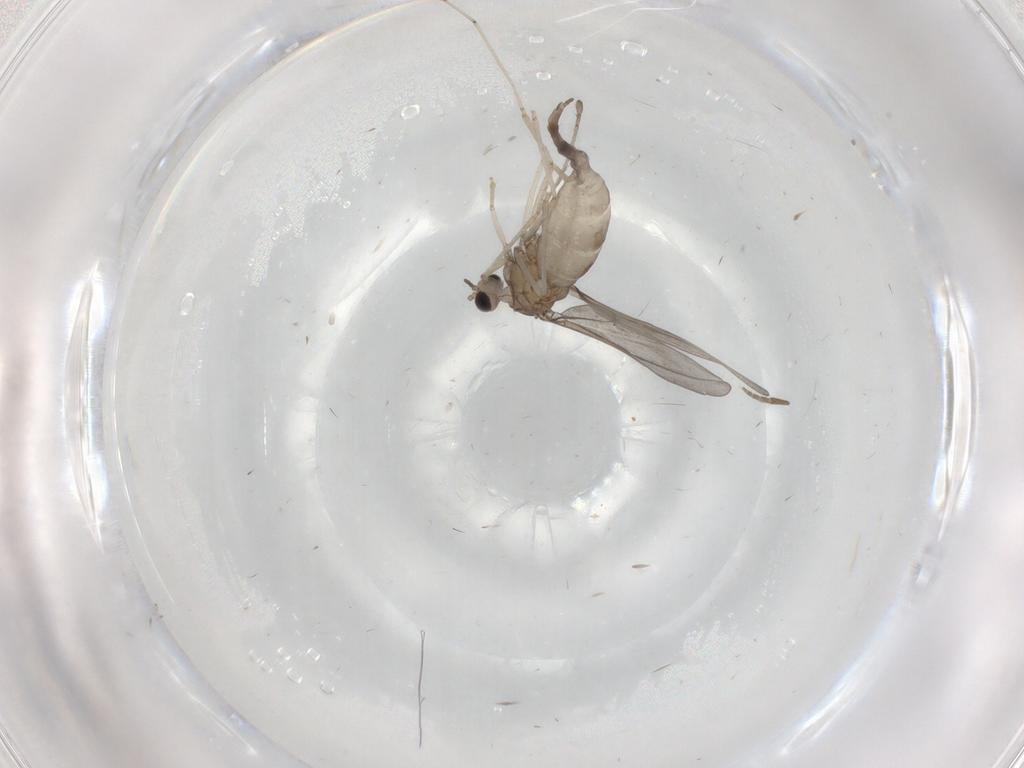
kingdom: Animalia
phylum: Arthropoda
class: Insecta
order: Diptera
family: Cecidomyiidae
